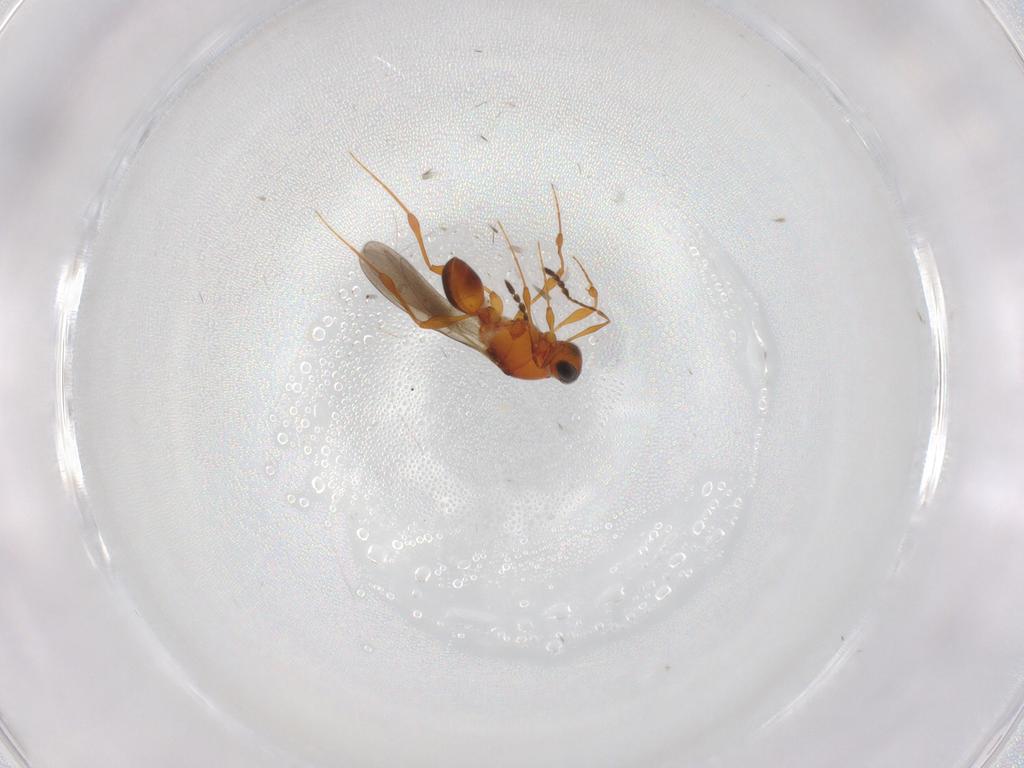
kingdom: Animalia
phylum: Arthropoda
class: Insecta
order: Hymenoptera
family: Platygastridae
